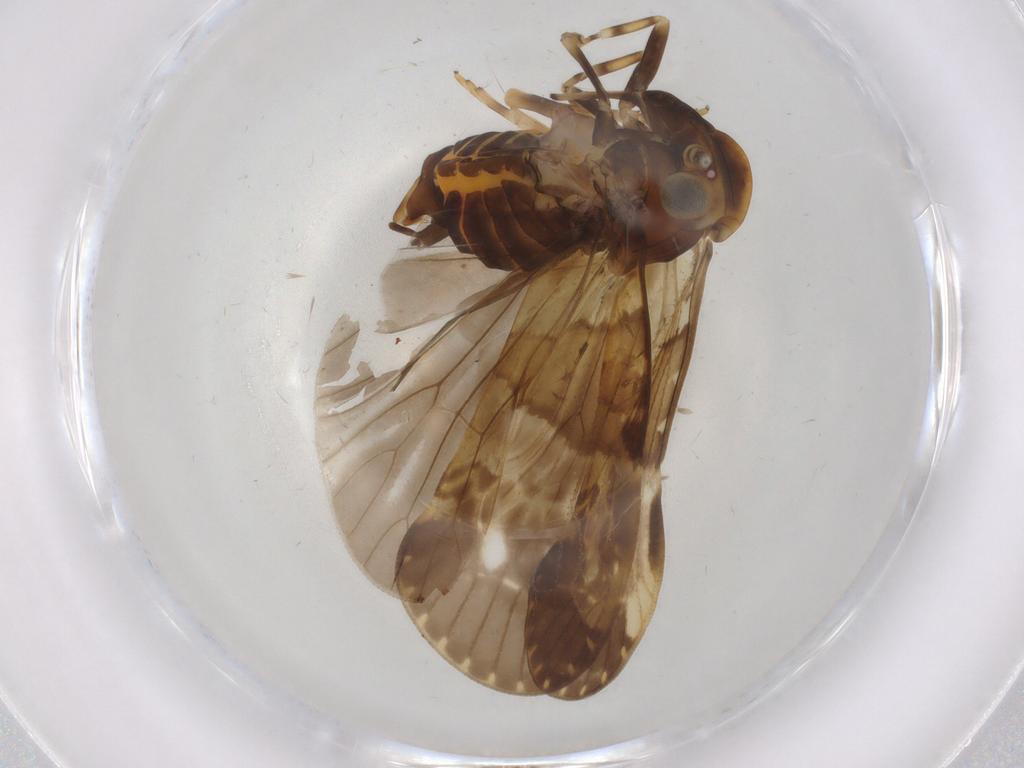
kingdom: Animalia
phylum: Arthropoda
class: Insecta
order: Hemiptera
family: Cixiidae
